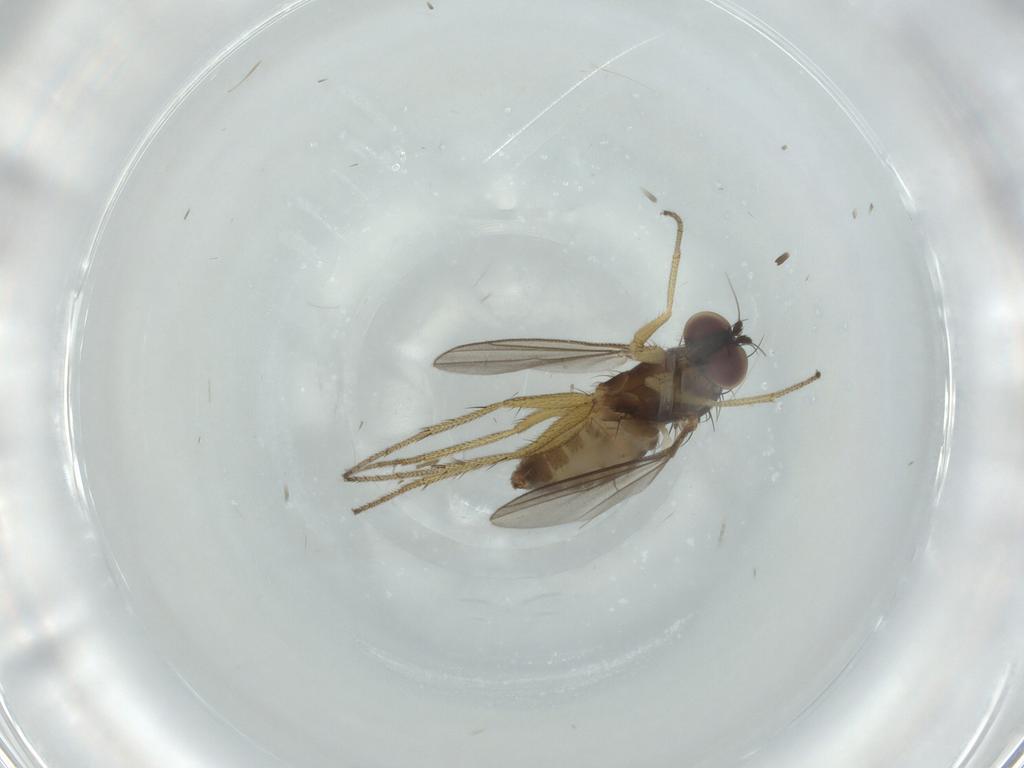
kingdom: Animalia
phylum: Arthropoda
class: Insecta
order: Diptera
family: Dolichopodidae
